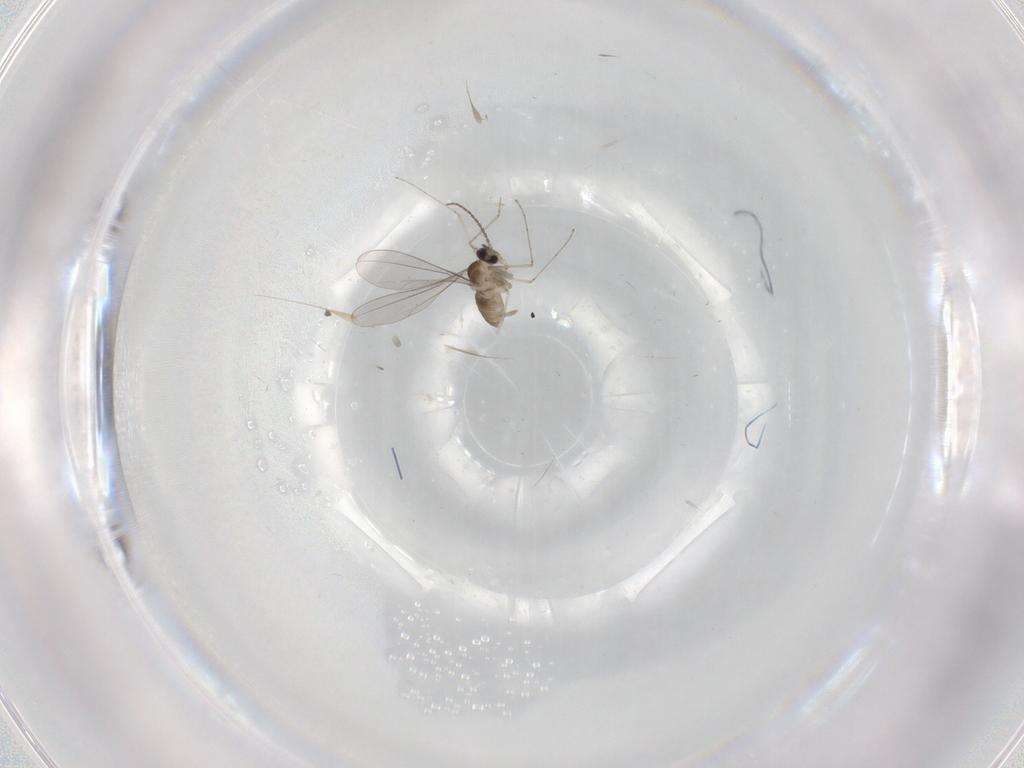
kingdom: Animalia
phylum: Arthropoda
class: Insecta
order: Diptera
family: Cecidomyiidae
